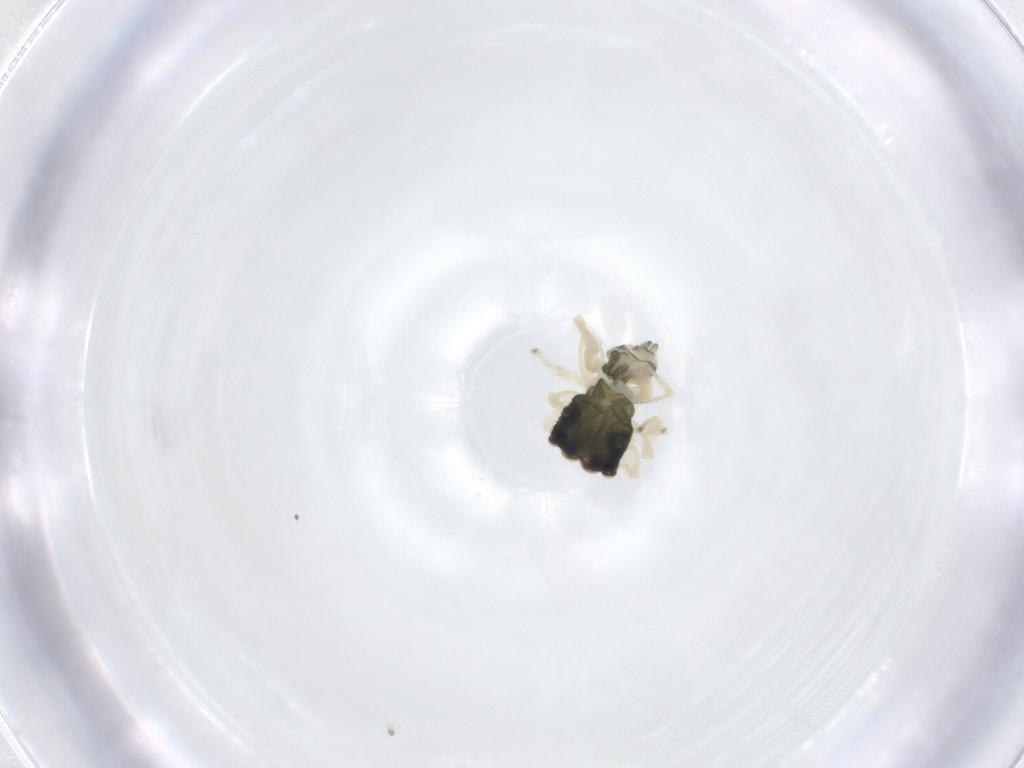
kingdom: Animalia
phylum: Arthropoda
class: Arachnida
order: Araneae
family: Salticidae
